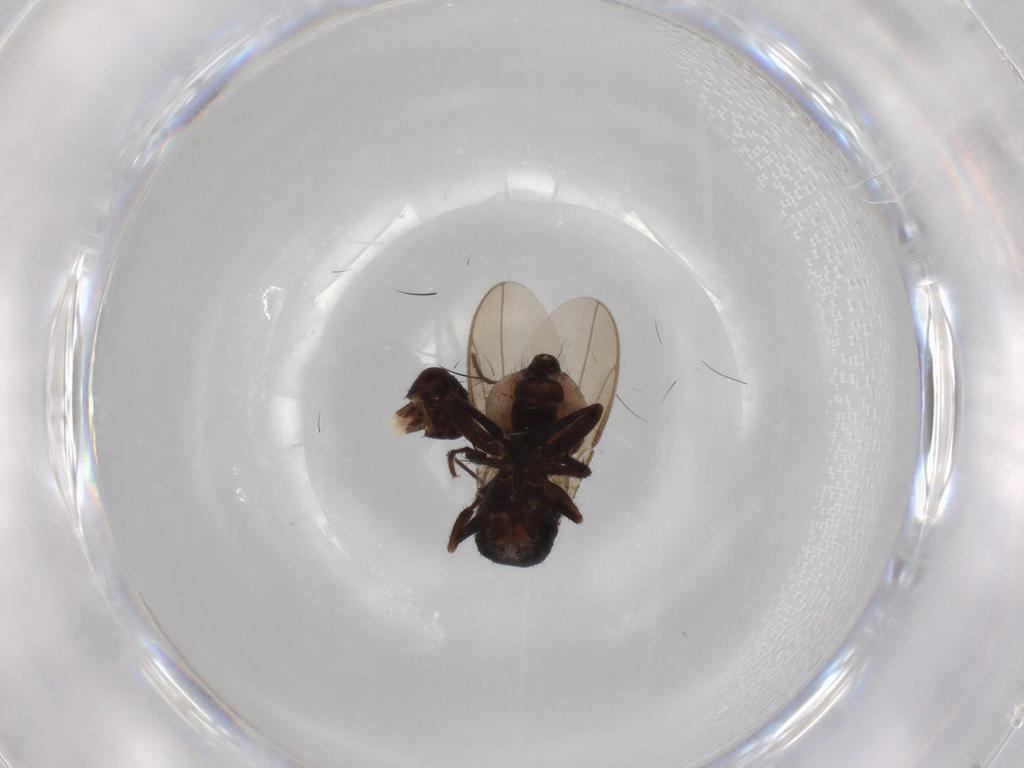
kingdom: Animalia
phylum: Arthropoda
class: Insecta
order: Diptera
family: Sphaeroceridae
